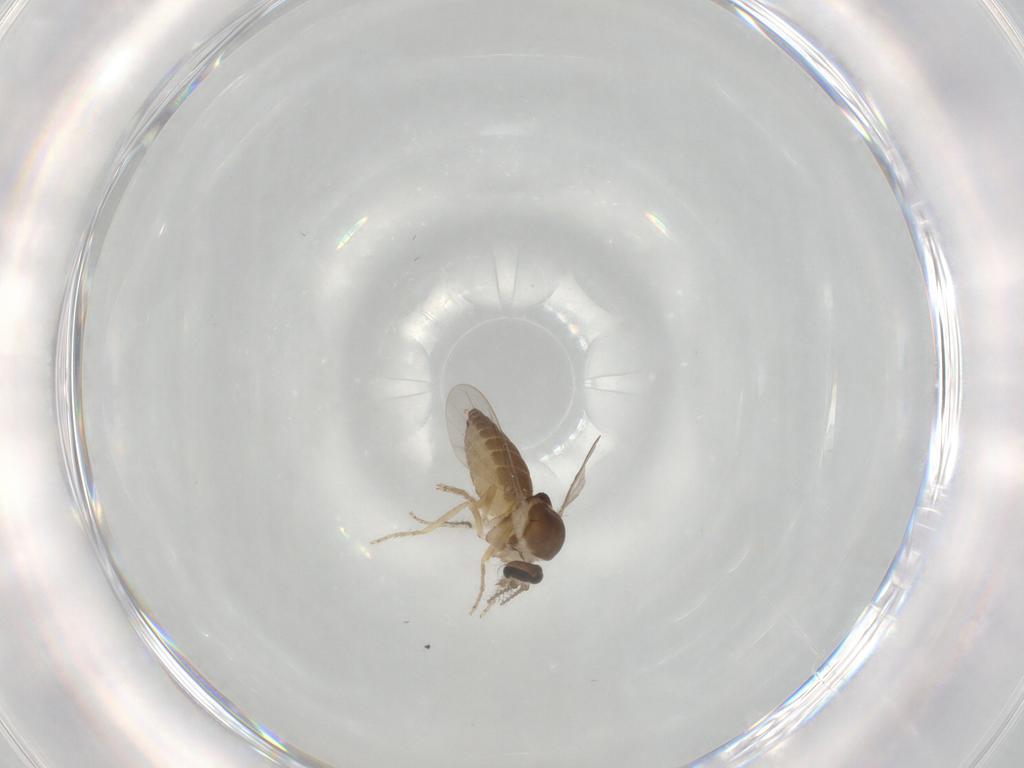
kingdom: Animalia
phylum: Arthropoda
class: Insecta
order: Diptera
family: Ceratopogonidae
